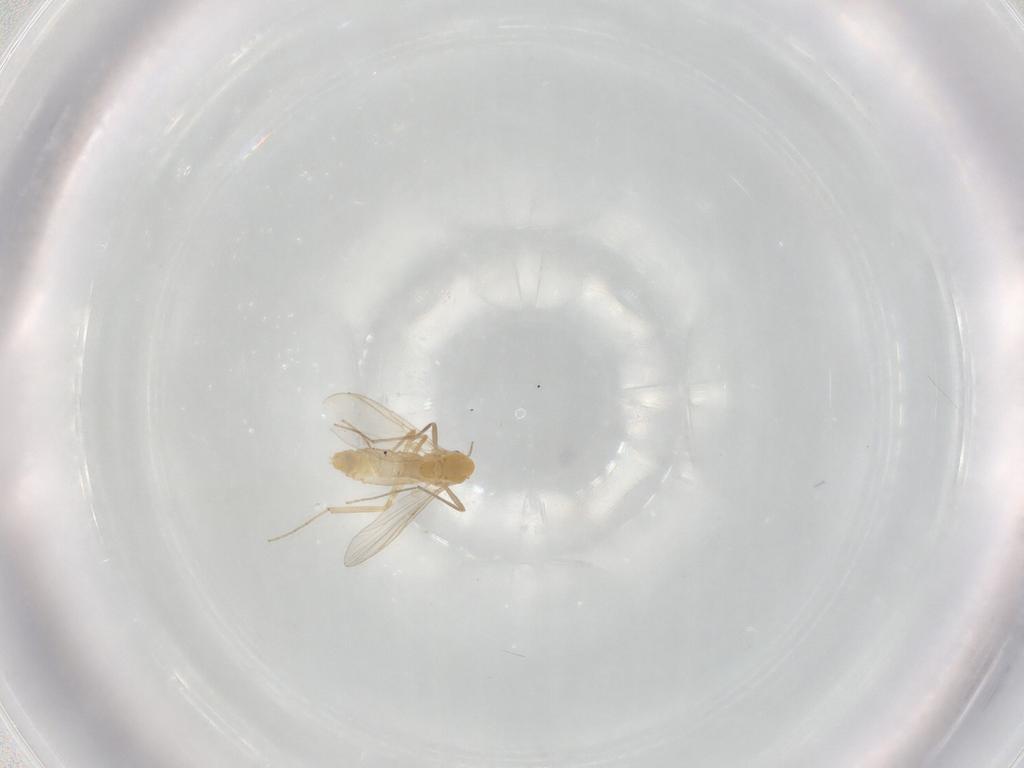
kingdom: Animalia
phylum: Arthropoda
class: Insecta
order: Diptera
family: Chironomidae
